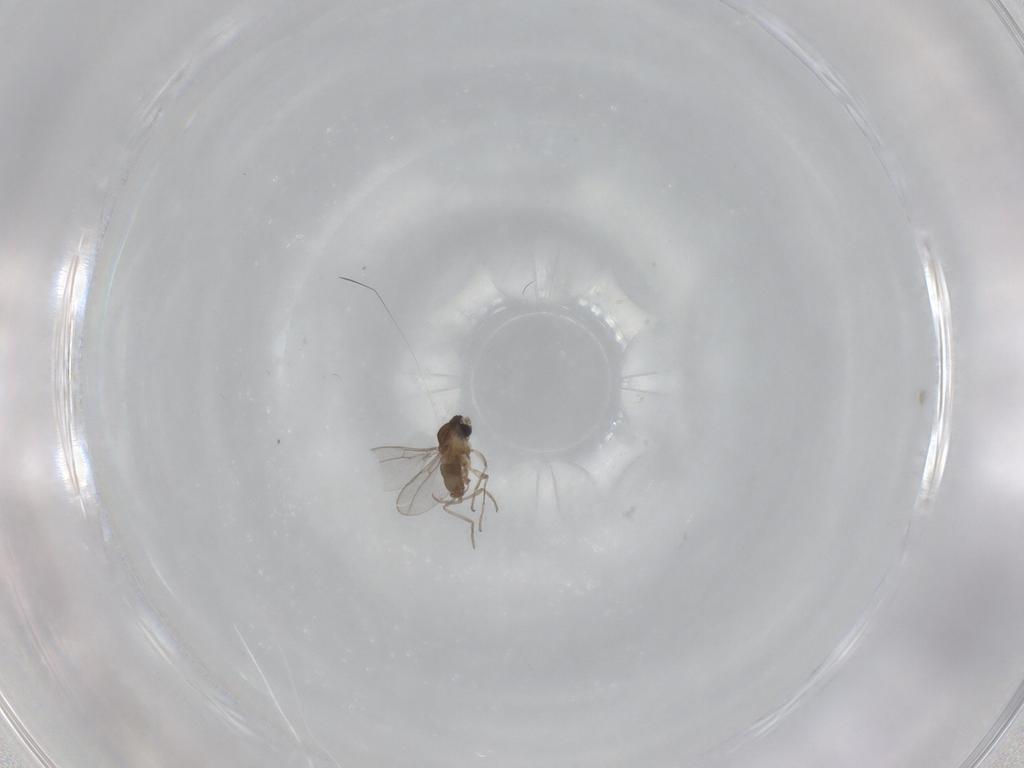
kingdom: Animalia
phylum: Arthropoda
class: Insecta
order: Diptera
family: Cecidomyiidae
